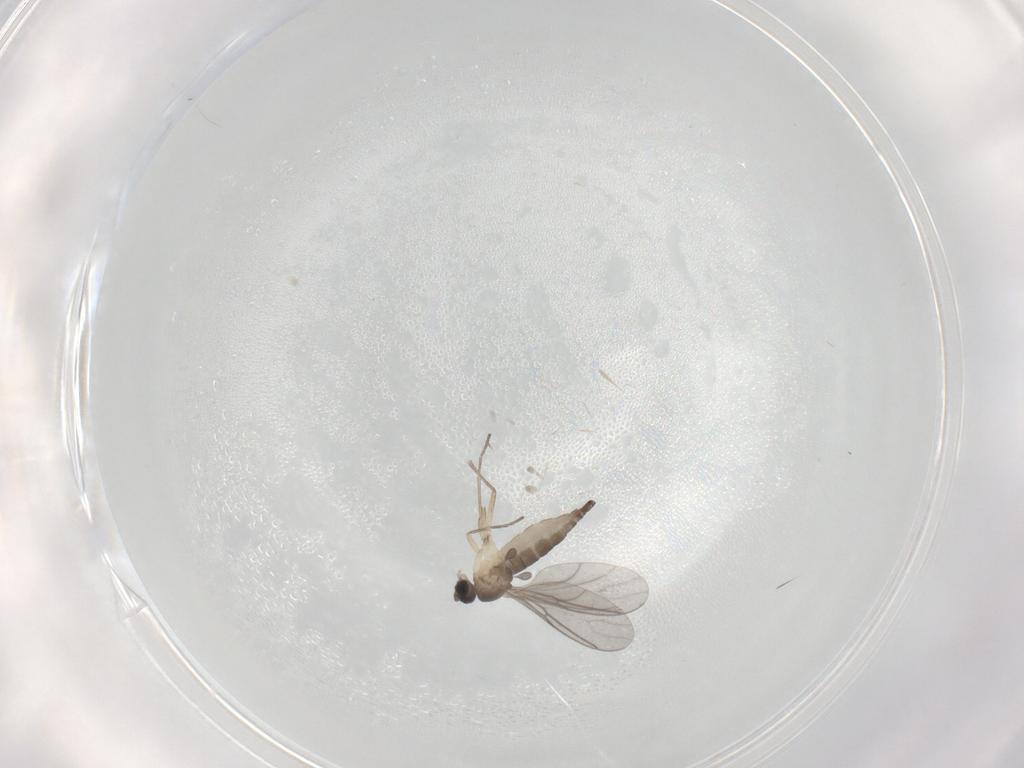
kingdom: Animalia
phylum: Arthropoda
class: Insecta
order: Diptera
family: Sciaridae
